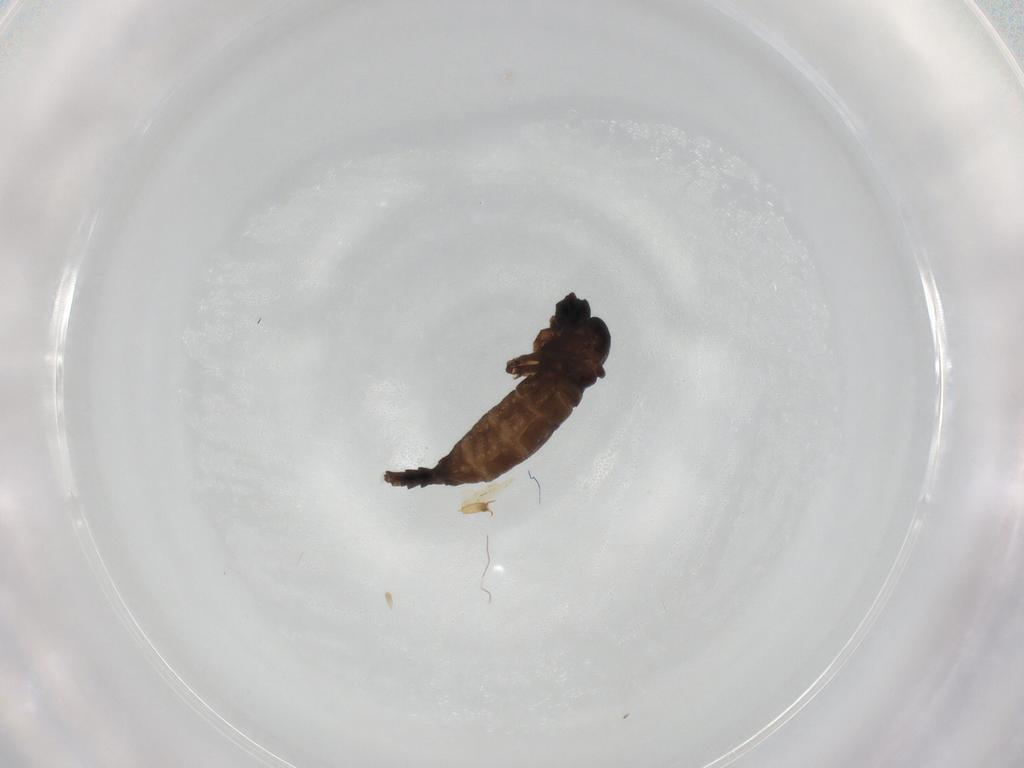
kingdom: Animalia
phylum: Arthropoda
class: Insecta
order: Diptera
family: Sciaridae
